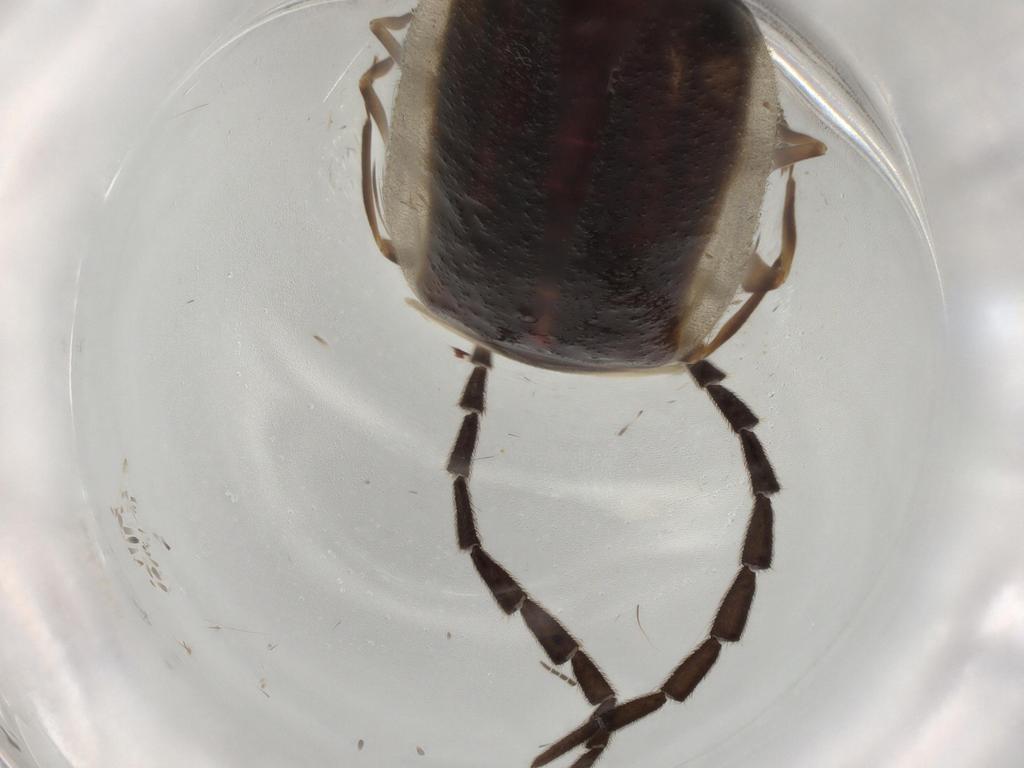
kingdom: Animalia
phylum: Arthropoda
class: Insecta
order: Coleoptera
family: Lampyridae
